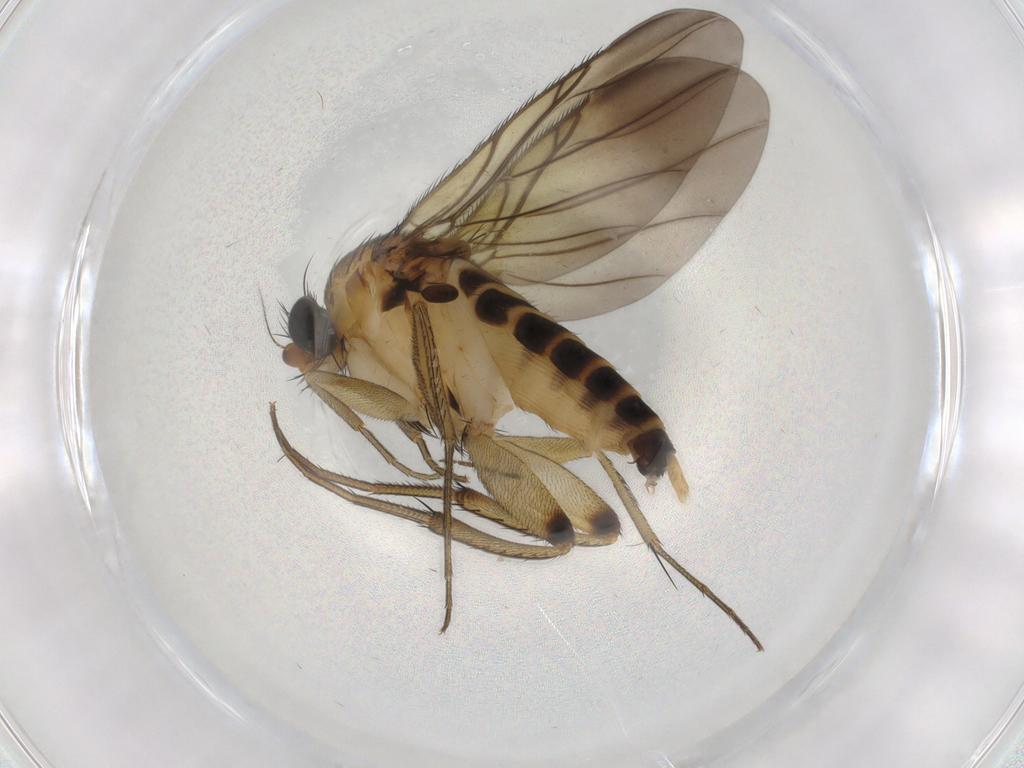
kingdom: Animalia
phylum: Arthropoda
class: Insecta
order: Diptera
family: Phoridae
